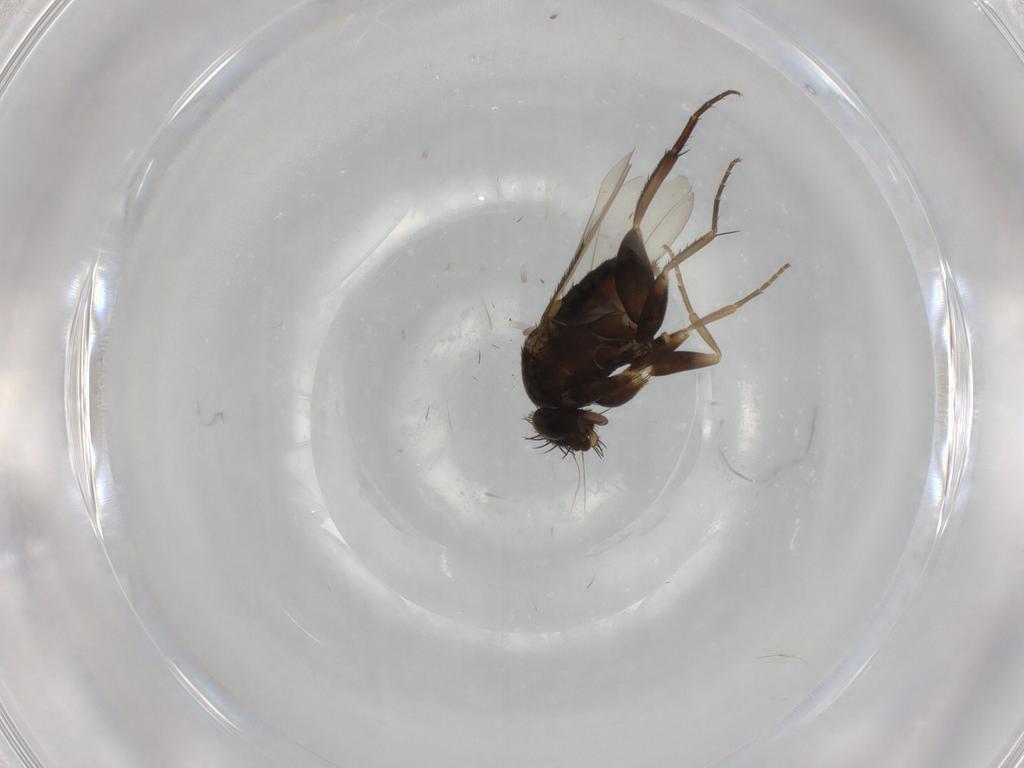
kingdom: Animalia
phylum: Arthropoda
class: Insecta
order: Diptera
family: Phoridae
